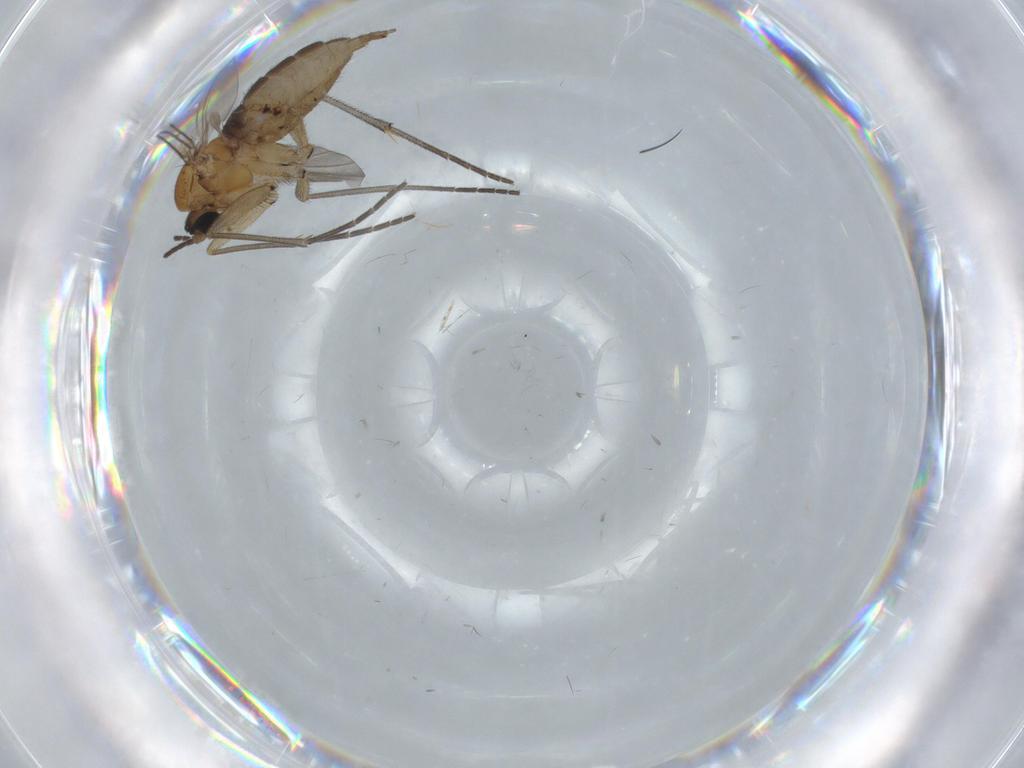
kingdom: Animalia
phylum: Arthropoda
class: Insecta
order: Diptera
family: Sciaridae
